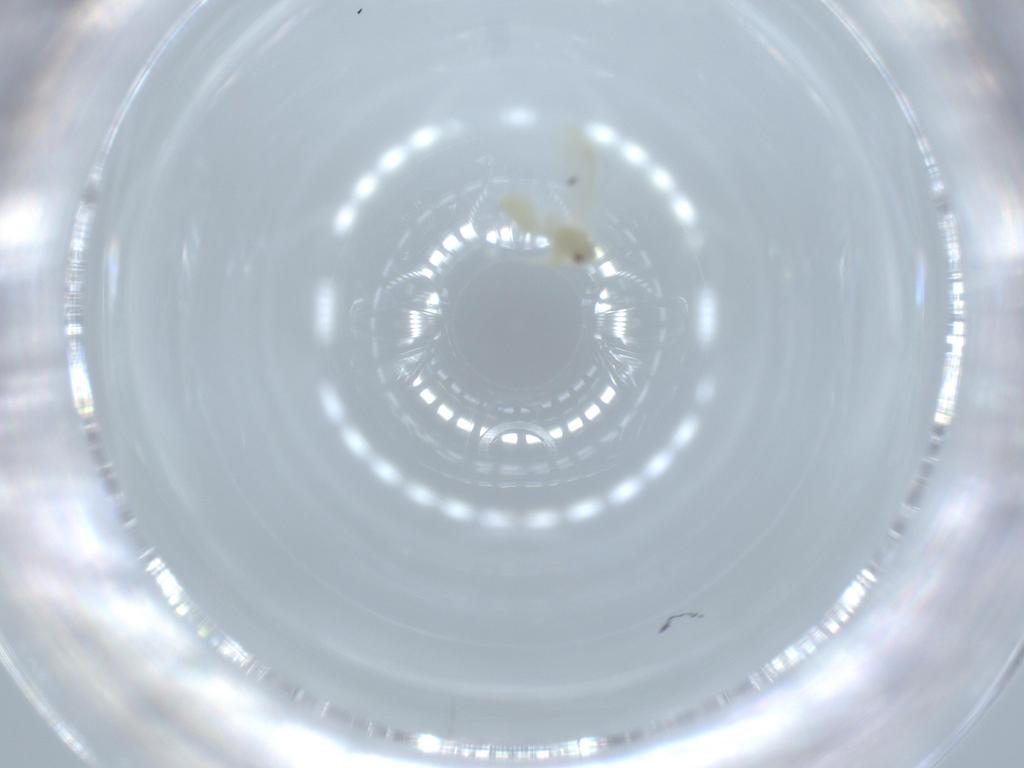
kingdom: Animalia
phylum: Arthropoda
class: Insecta
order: Hemiptera
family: Aleyrodidae
